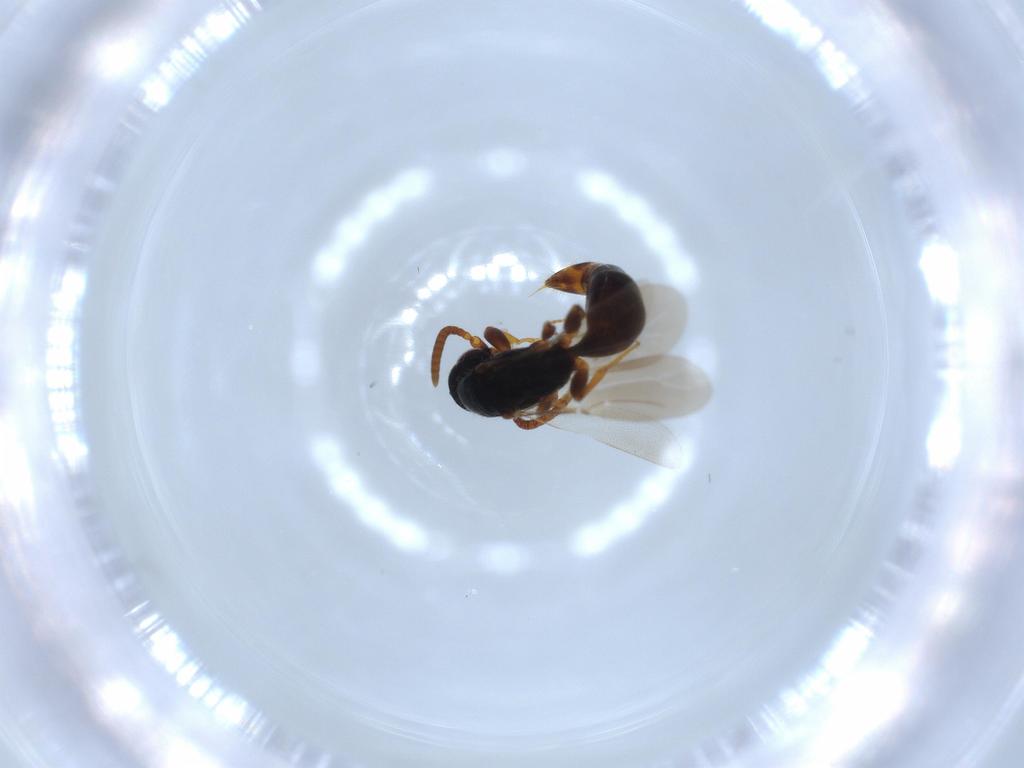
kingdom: Animalia
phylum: Arthropoda
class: Insecta
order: Hymenoptera
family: Bethylidae
